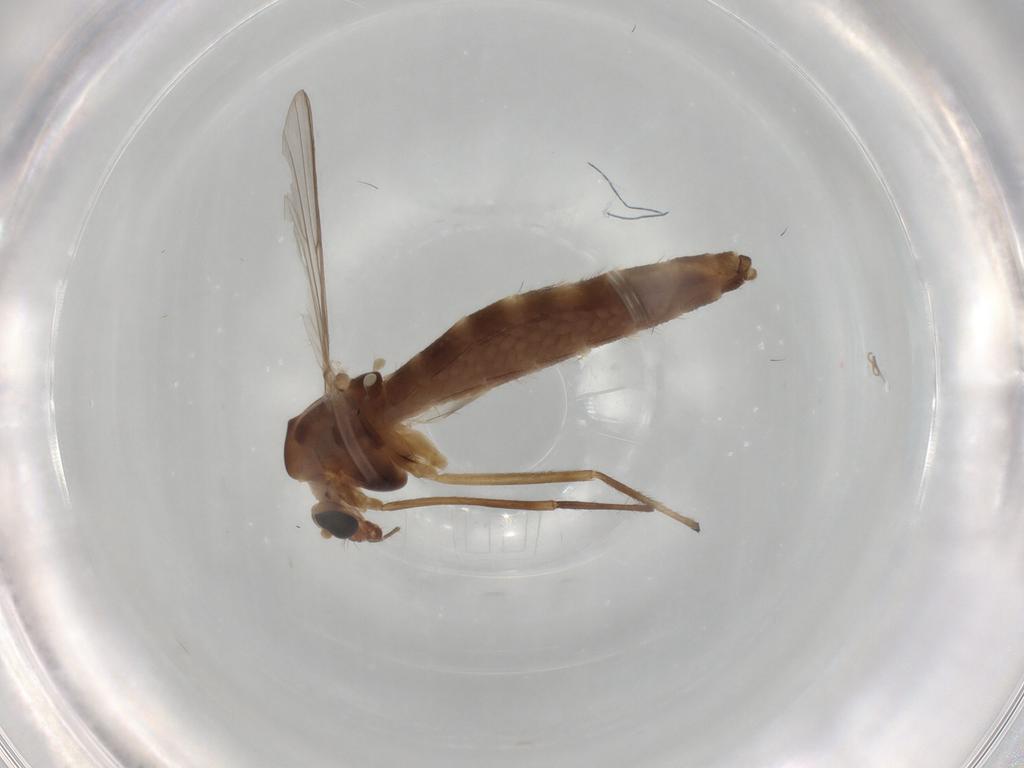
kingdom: Animalia
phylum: Arthropoda
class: Insecta
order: Diptera
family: Chironomidae
